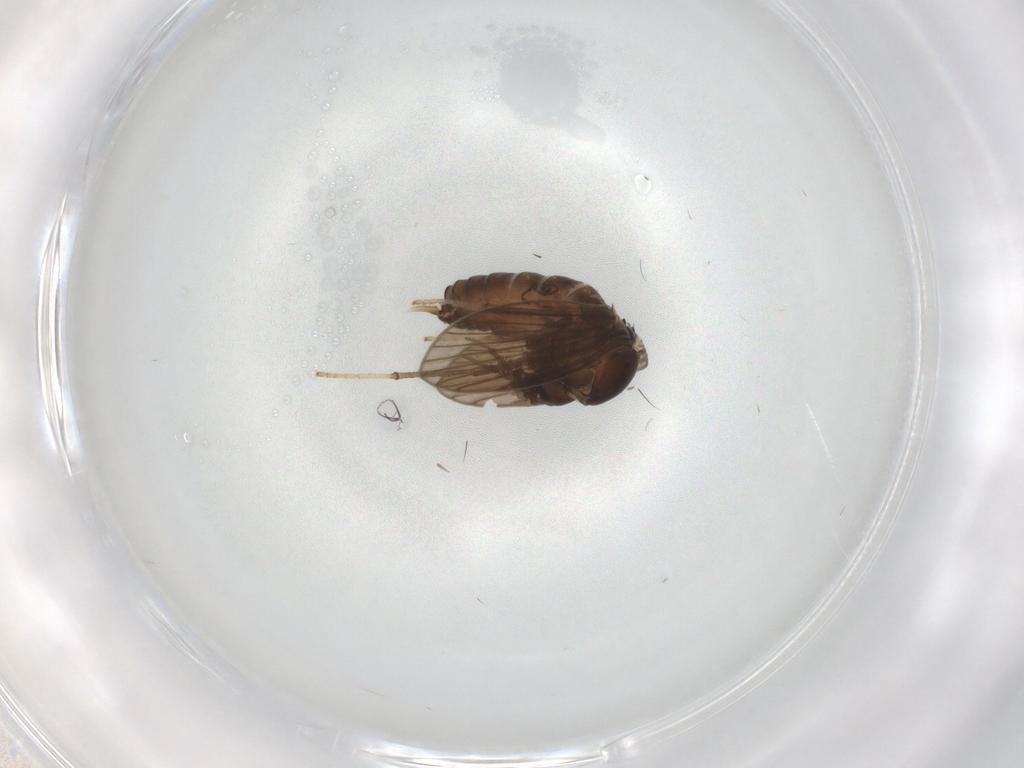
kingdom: Animalia
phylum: Arthropoda
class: Insecta
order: Diptera
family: Psychodidae
